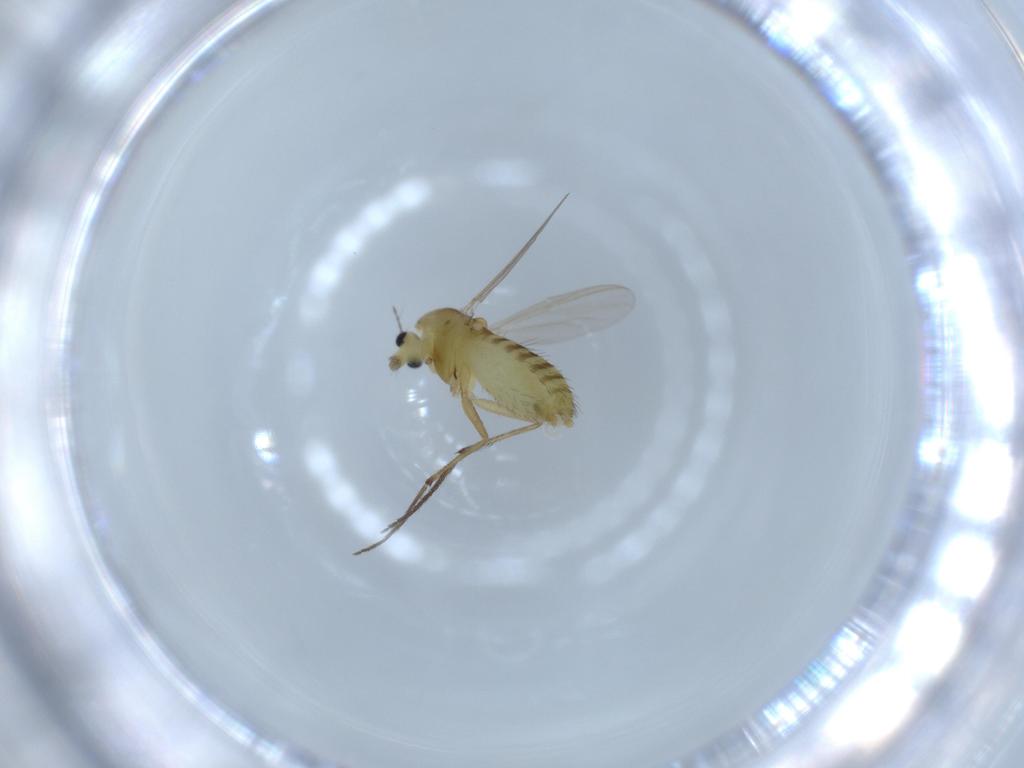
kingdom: Animalia
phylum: Arthropoda
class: Insecta
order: Diptera
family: Chironomidae
